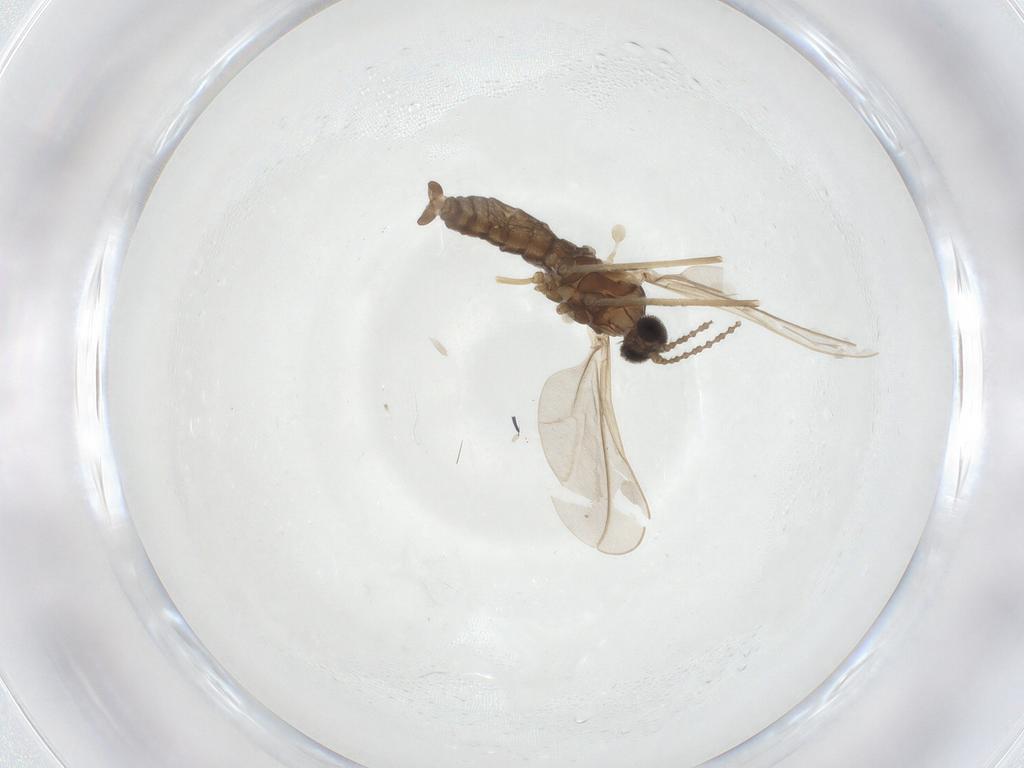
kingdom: Animalia
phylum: Arthropoda
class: Insecta
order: Diptera
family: Cecidomyiidae
